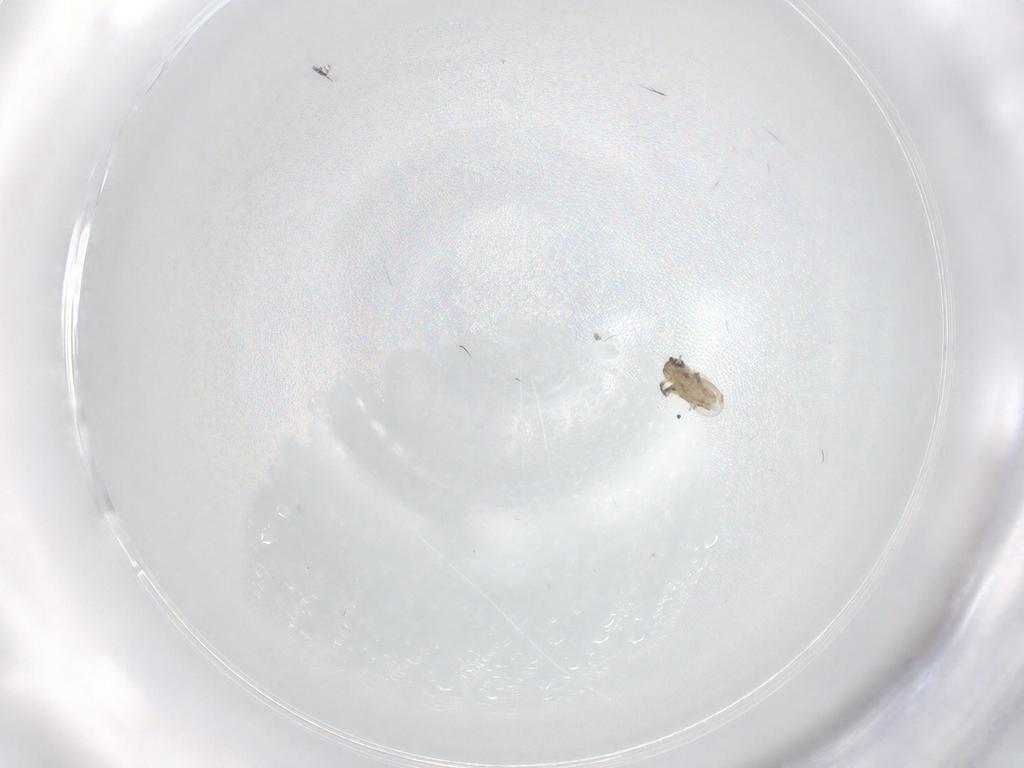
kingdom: Animalia
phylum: Arthropoda
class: Insecta
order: Diptera
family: Cecidomyiidae
